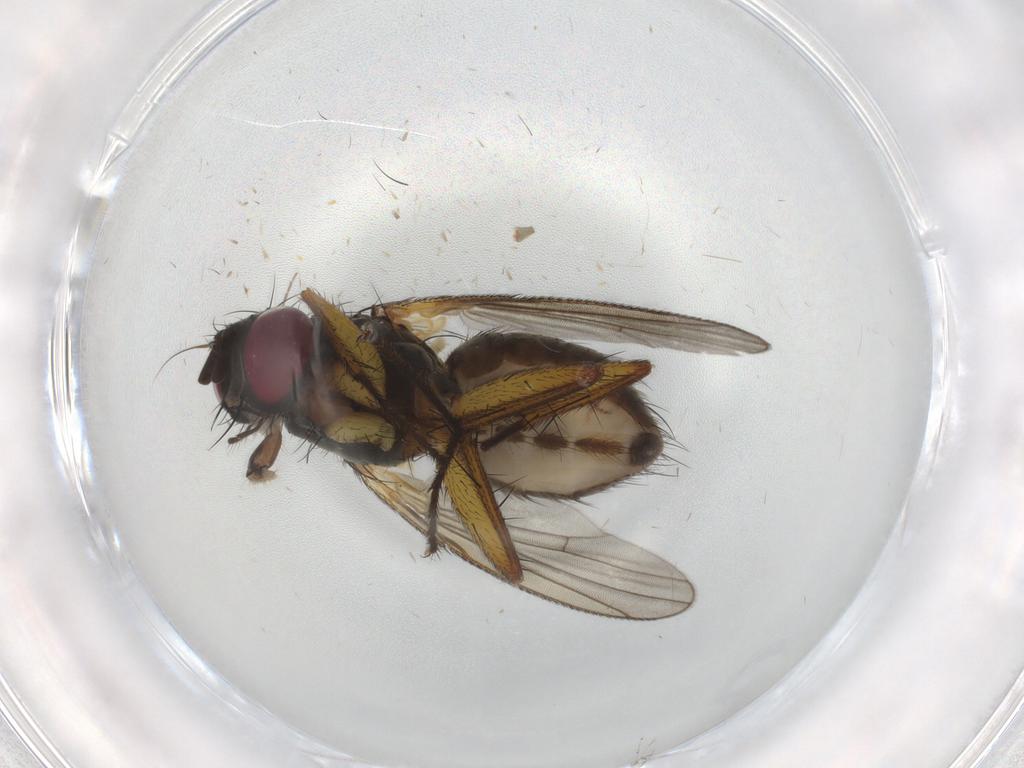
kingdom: Animalia
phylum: Arthropoda
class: Insecta
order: Diptera
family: Muscidae
